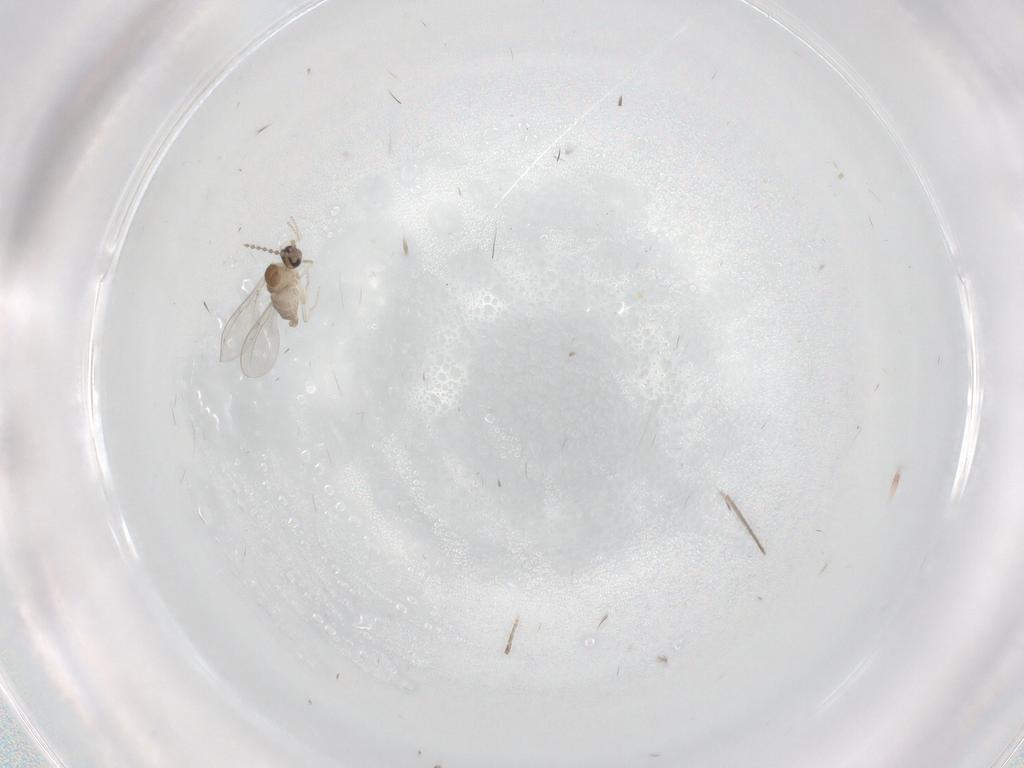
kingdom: Animalia
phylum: Arthropoda
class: Insecta
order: Diptera
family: Cecidomyiidae
